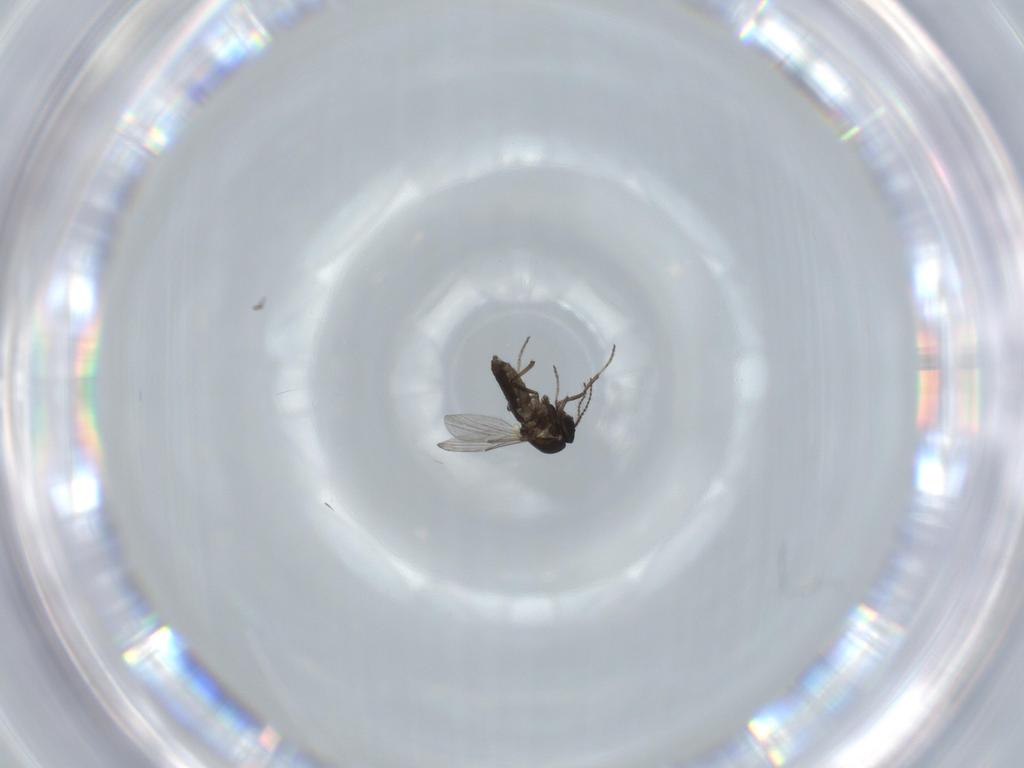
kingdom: Animalia
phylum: Arthropoda
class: Insecta
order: Diptera
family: Ceratopogonidae
